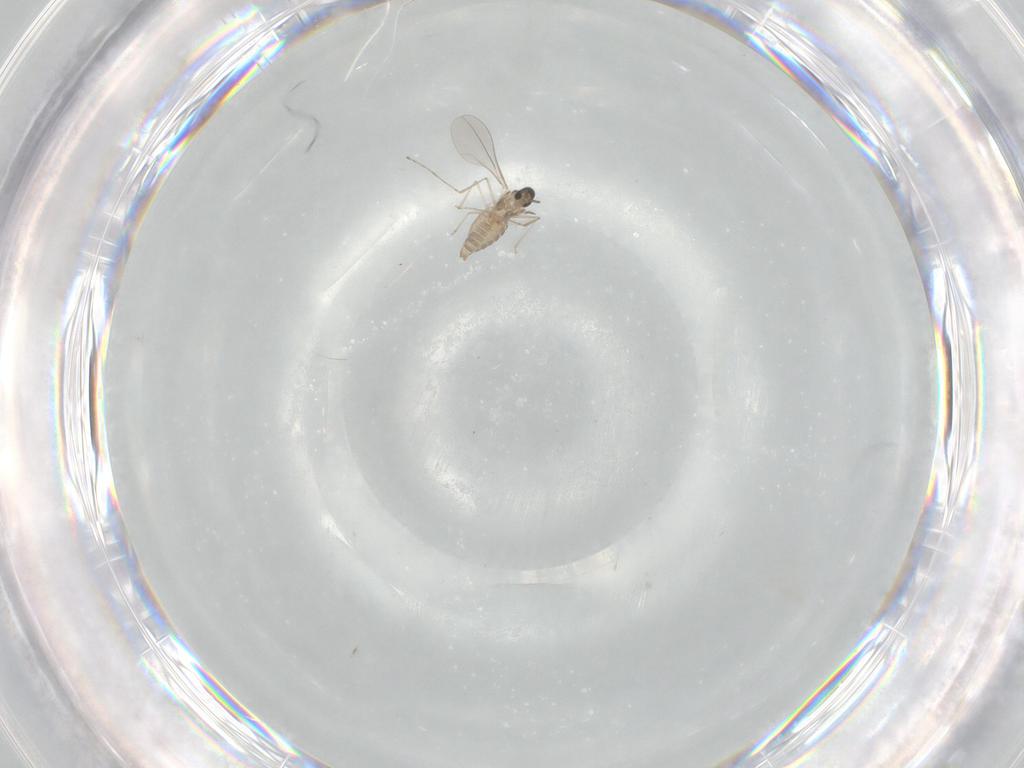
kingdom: Animalia
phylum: Arthropoda
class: Insecta
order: Diptera
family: Cecidomyiidae
